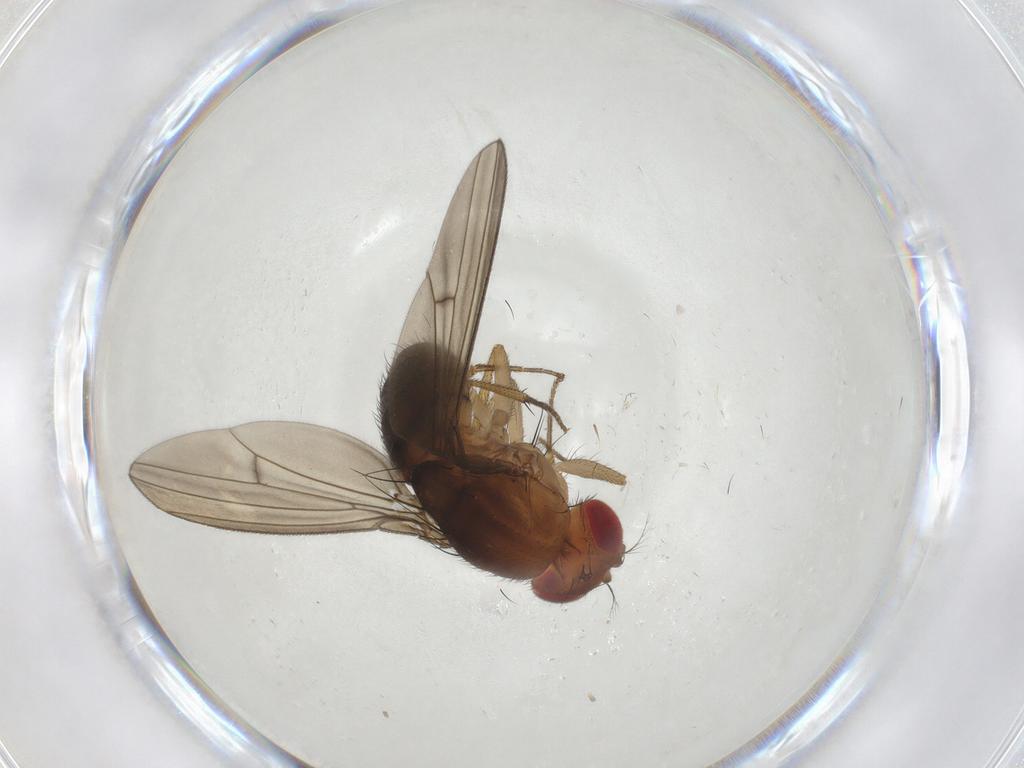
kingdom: Animalia
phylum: Arthropoda
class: Insecta
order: Diptera
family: Drosophilidae
